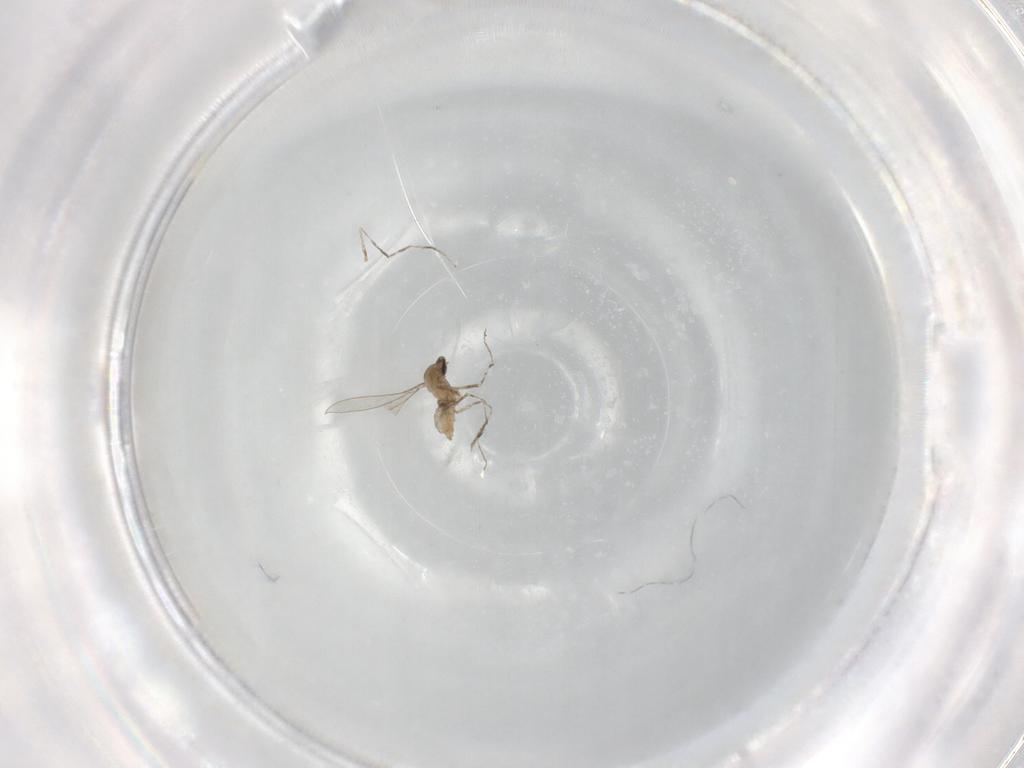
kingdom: Animalia
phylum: Arthropoda
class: Insecta
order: Diptera
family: Cecidomyiidae
